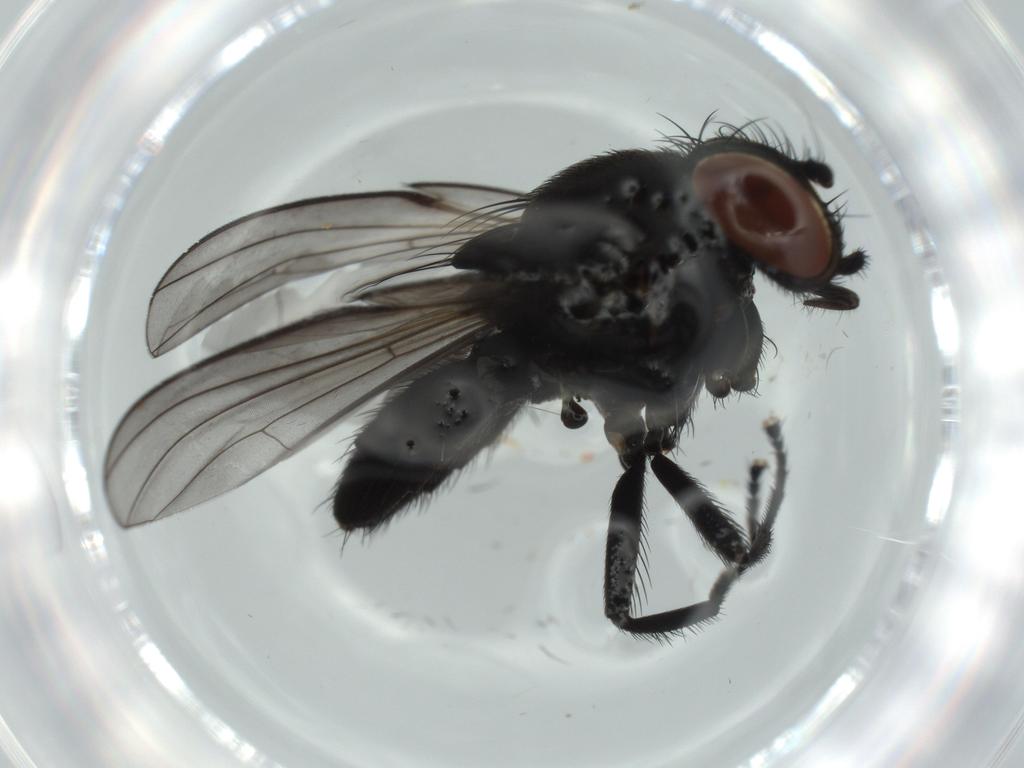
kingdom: Animalia
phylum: Arthropoda
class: Insecta
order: Diptera
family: Milichiidae
